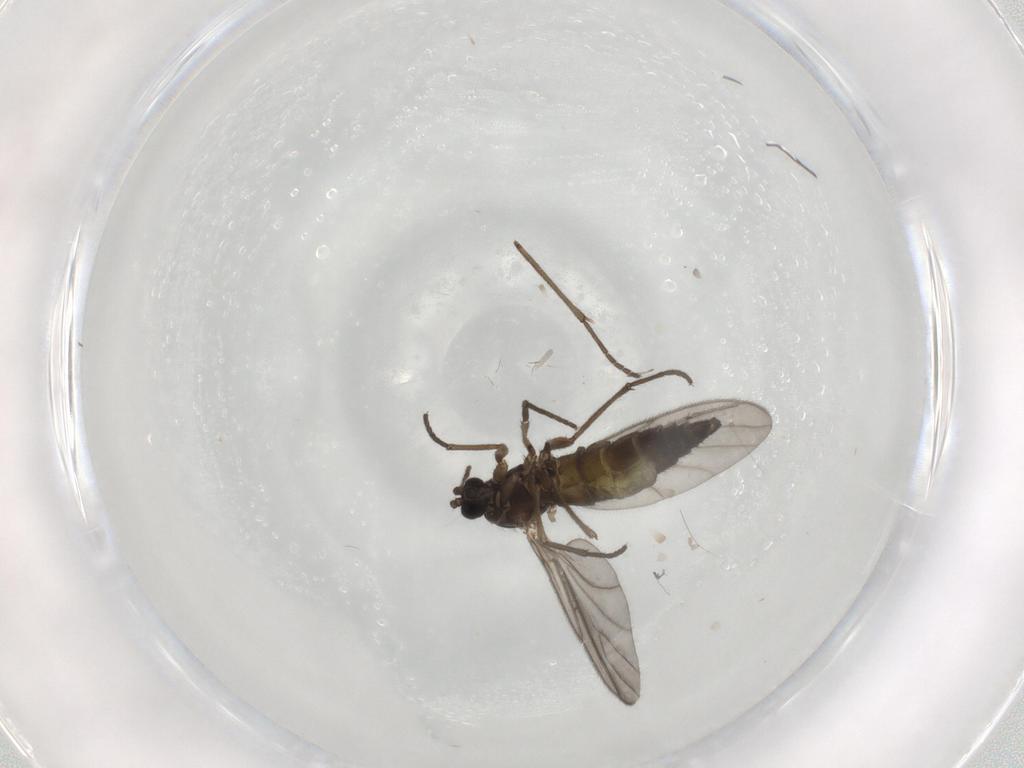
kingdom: Animalia
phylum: Arthropoda
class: Insecta
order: Diptera
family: Sciaridae
